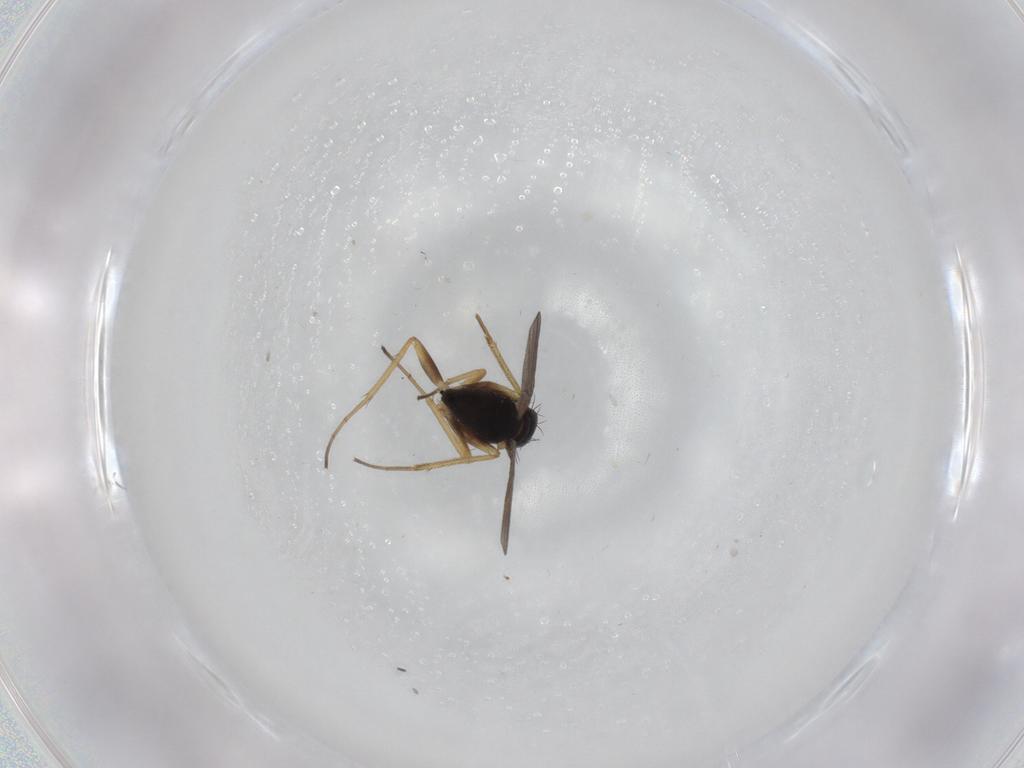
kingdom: Animalia
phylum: Arthropoda
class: Insecta
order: Diptera
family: Dolichopodidae
